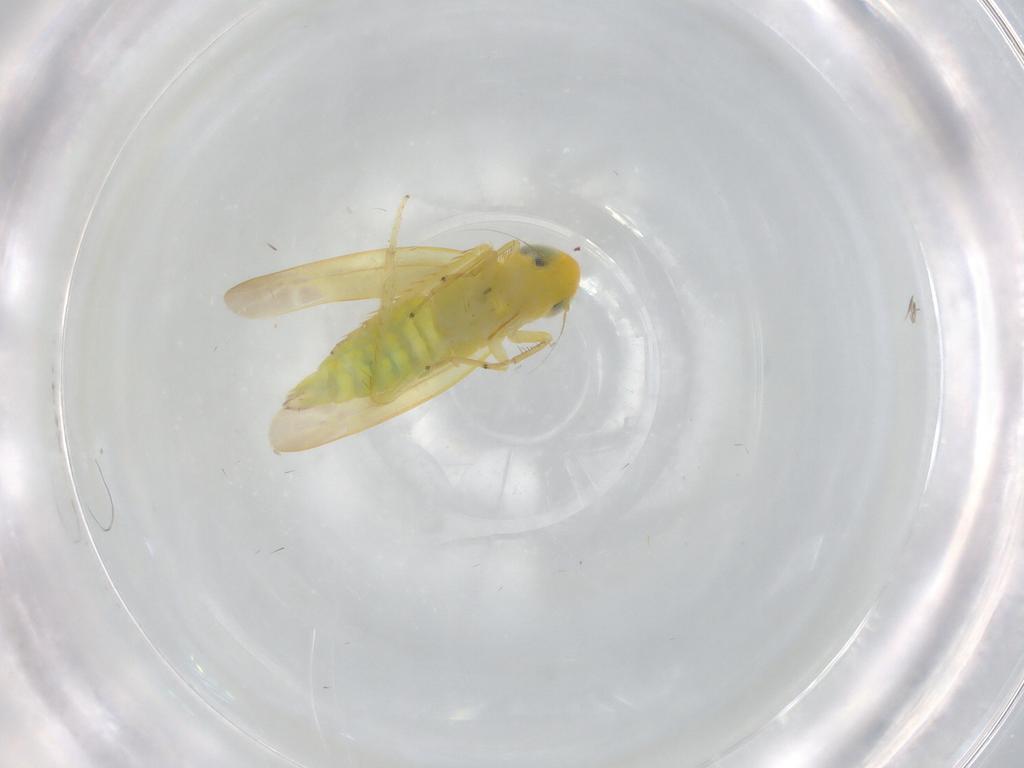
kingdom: Animalia
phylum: Arthropoda
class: Insecta
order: Hemiptera
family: Cicadellidae
